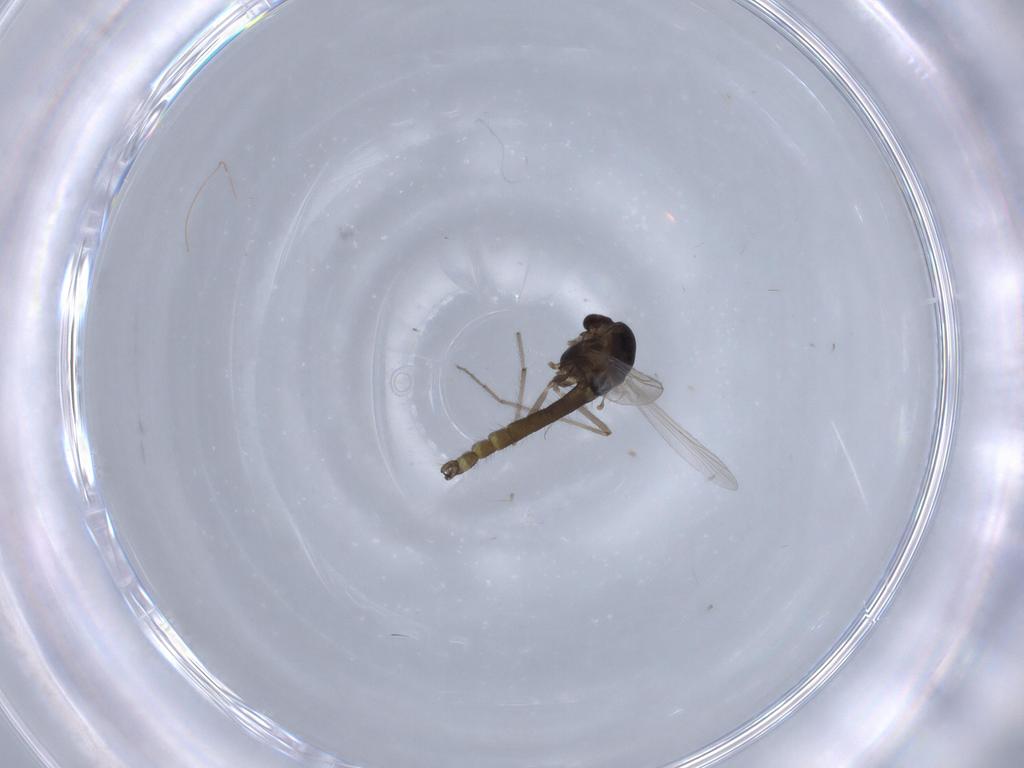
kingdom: Animalia
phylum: Arthropoda
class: Insecta
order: Diptera
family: Chironomidae
